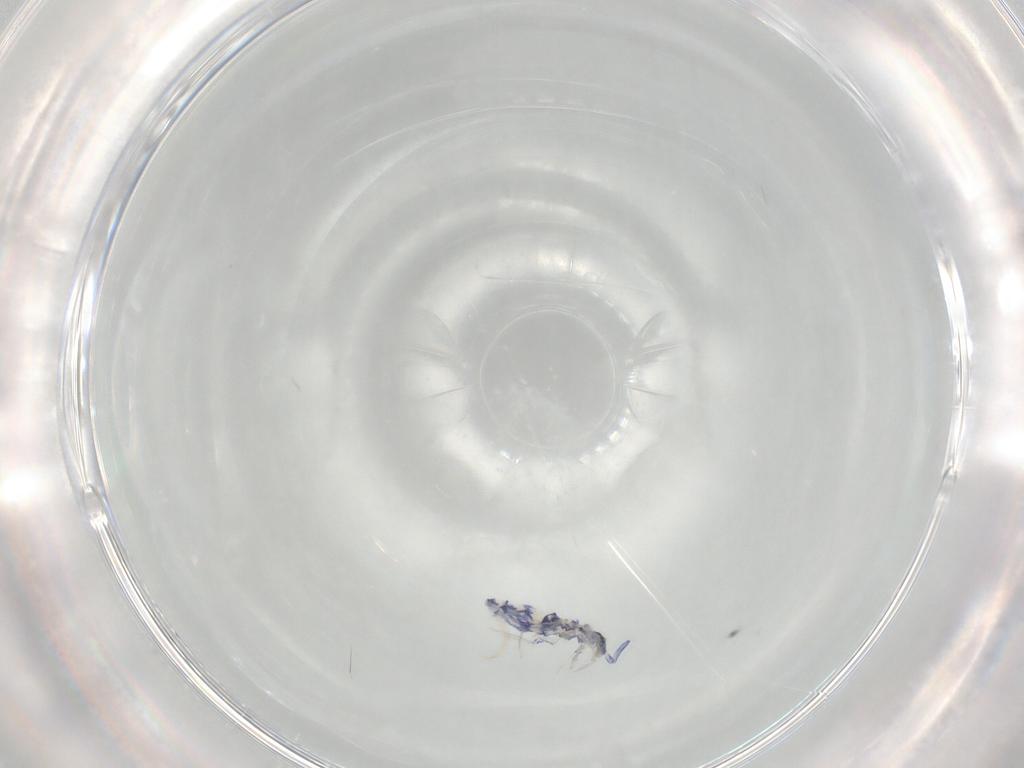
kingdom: Animalia
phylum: Arthropoda
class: Collembola
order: Entomobryomorpha
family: Entomobryidae
